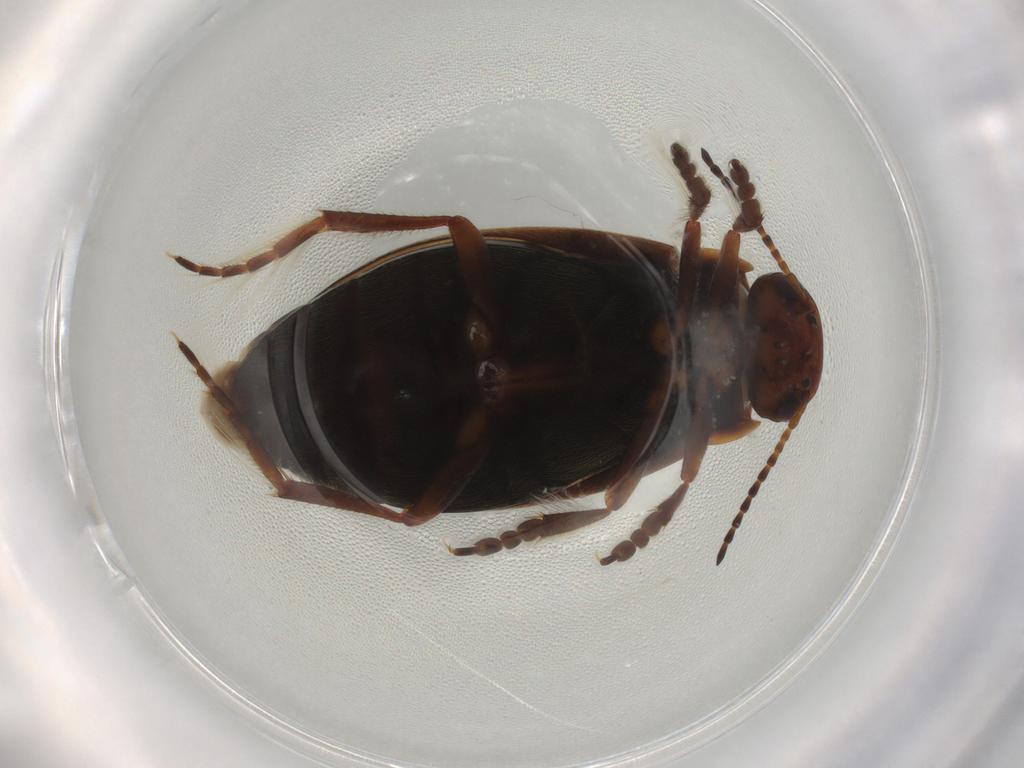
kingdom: Animalia
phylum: Arthropoda
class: Insecta
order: Coleoptera
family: Dytiscidae
